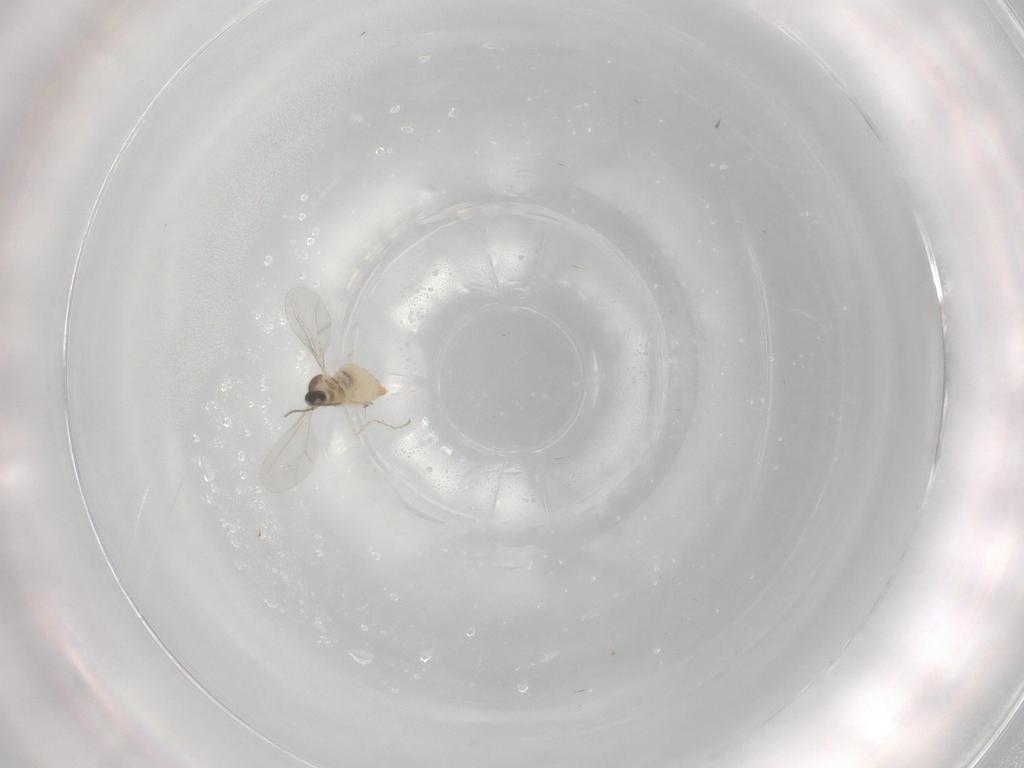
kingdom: Animalia
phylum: Arthropoda
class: Insecta
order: Diptera
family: Cecidomyiidae
